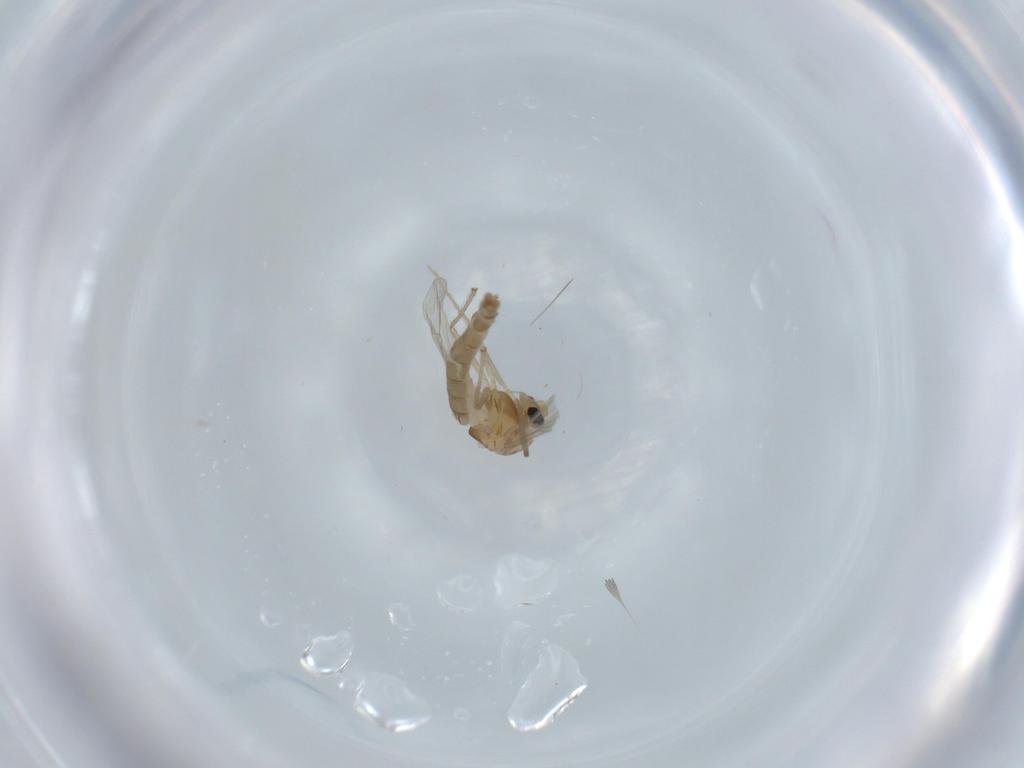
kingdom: Animalia
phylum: Arthropoda
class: Insecta
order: Diptera
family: Chironomidae
